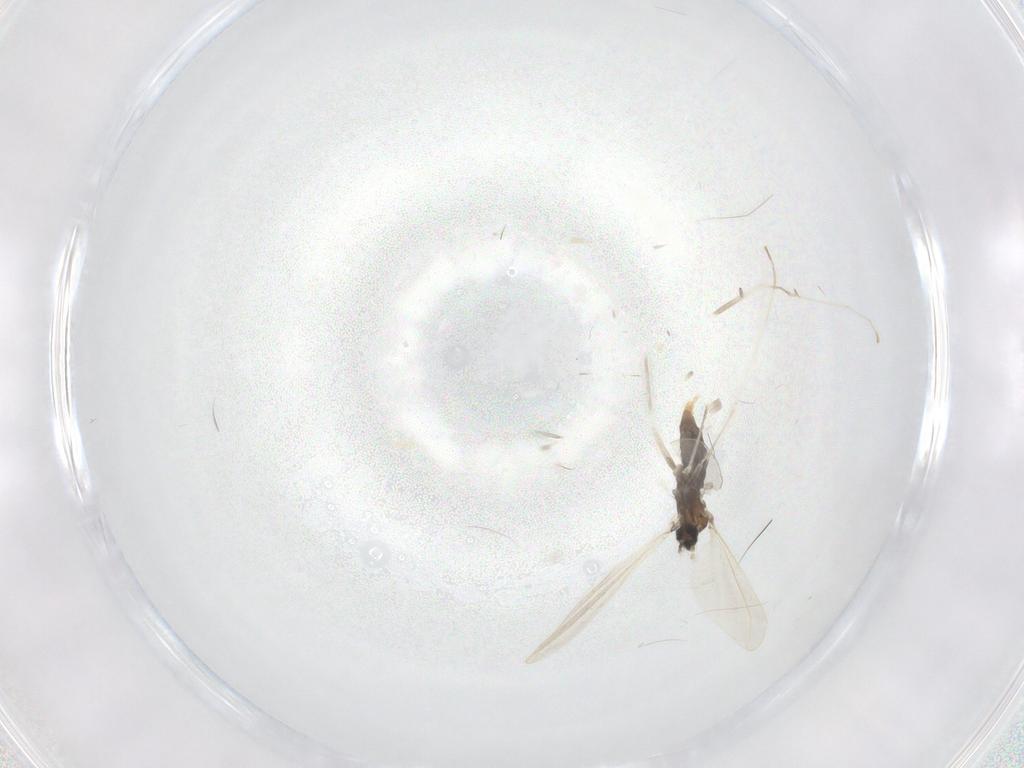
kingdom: Animalia
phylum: Arthropoda
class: Insecta
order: Diptera
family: Cecidomyiidae
